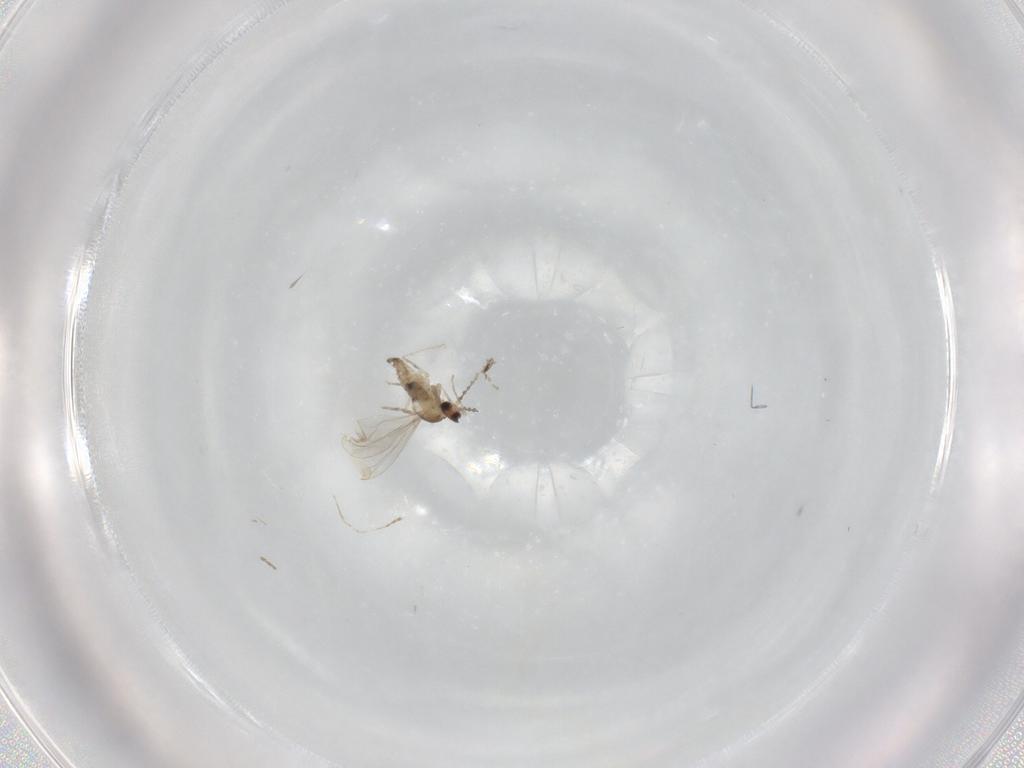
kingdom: Animalia
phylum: Arthropoda
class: Insecta
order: Diptera
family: Cecidomyiidae
